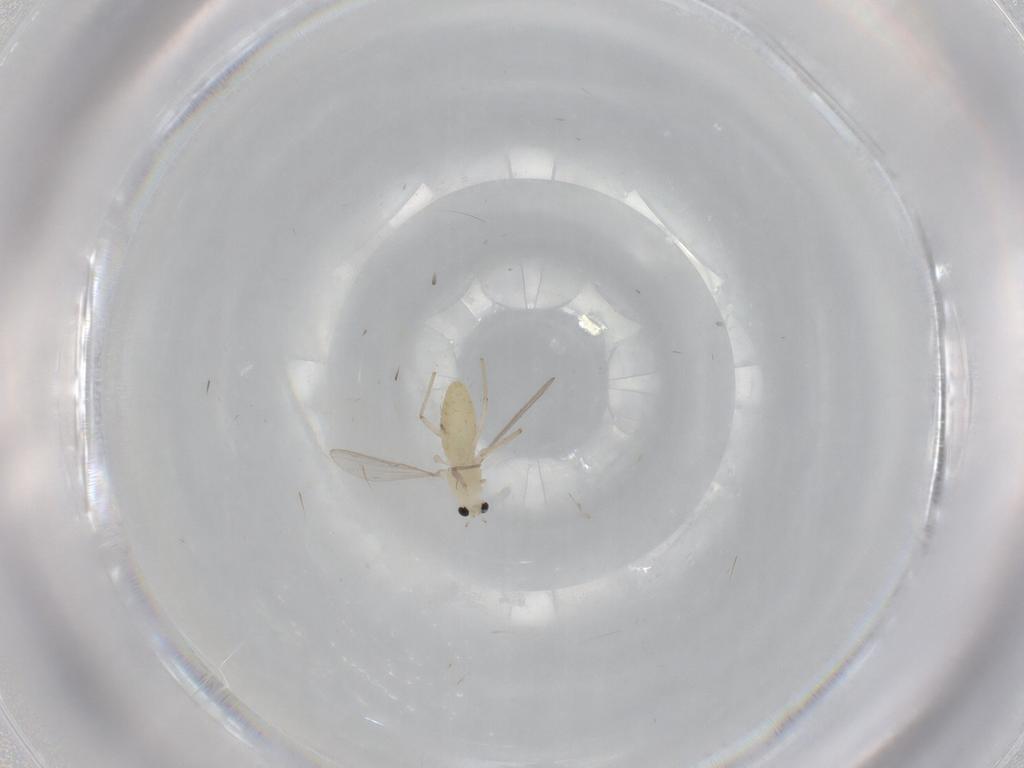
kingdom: Animalia
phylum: Arthropoda
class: Insecta
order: Diptera
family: Chironomidae
